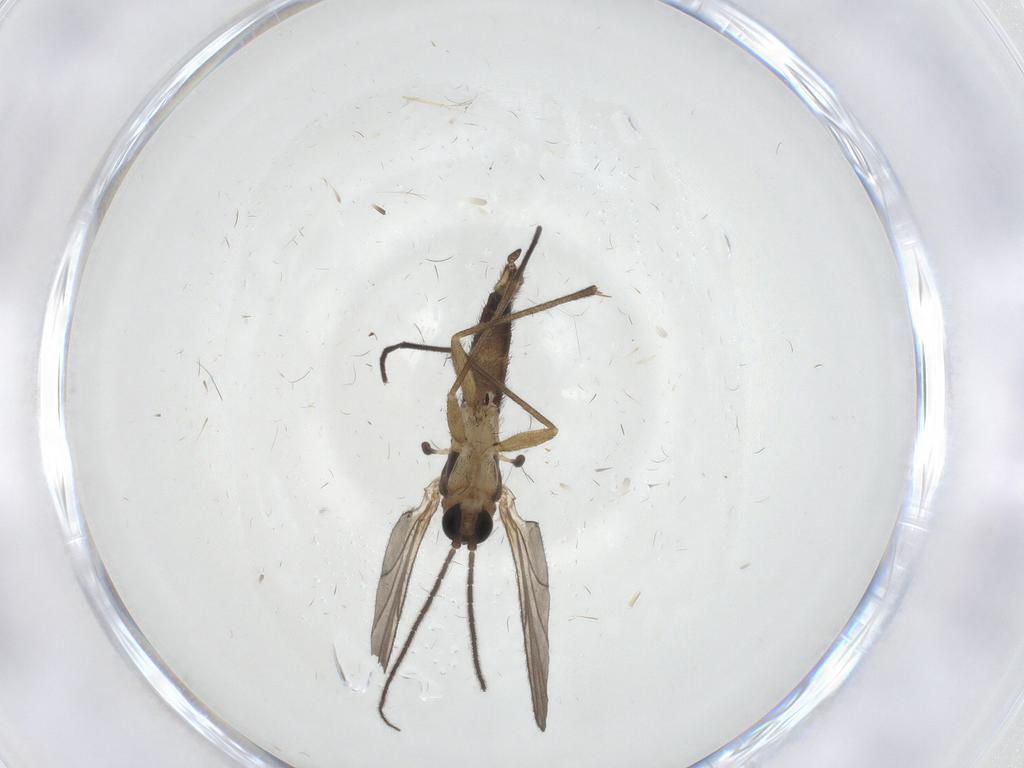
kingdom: Animalia
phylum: Arthropoda
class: Insecta
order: Diptera
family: Sciaridae
